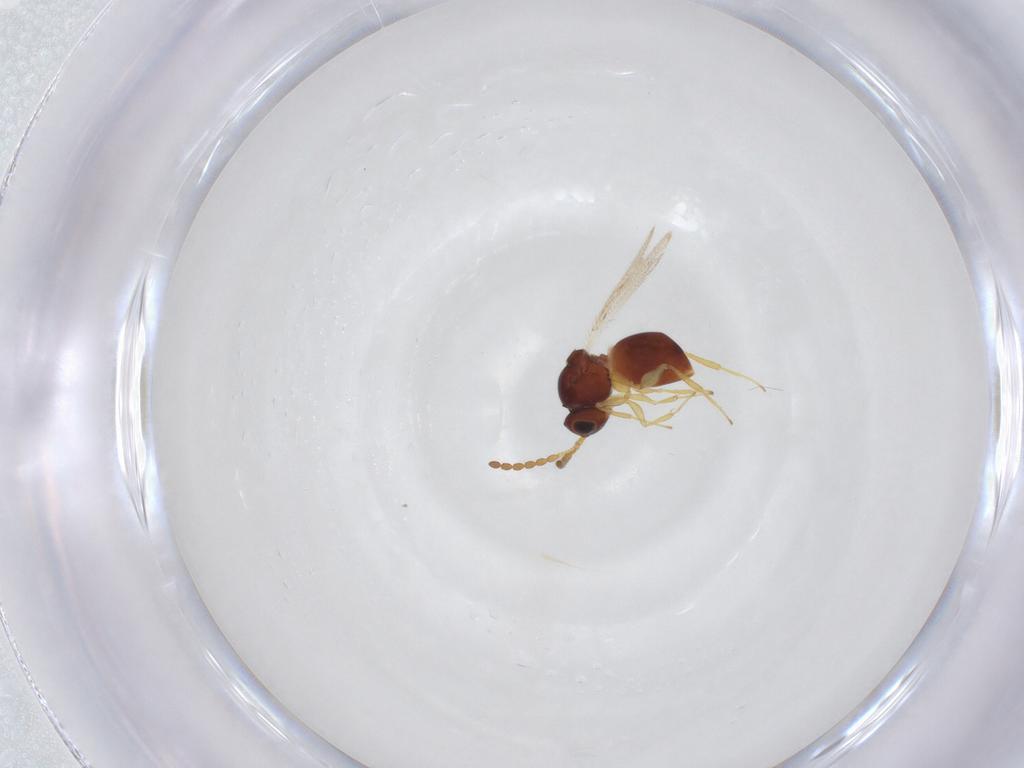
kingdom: Animalia
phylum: Arthropoda
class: Insecta
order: Hymenoptera
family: Figitidae
